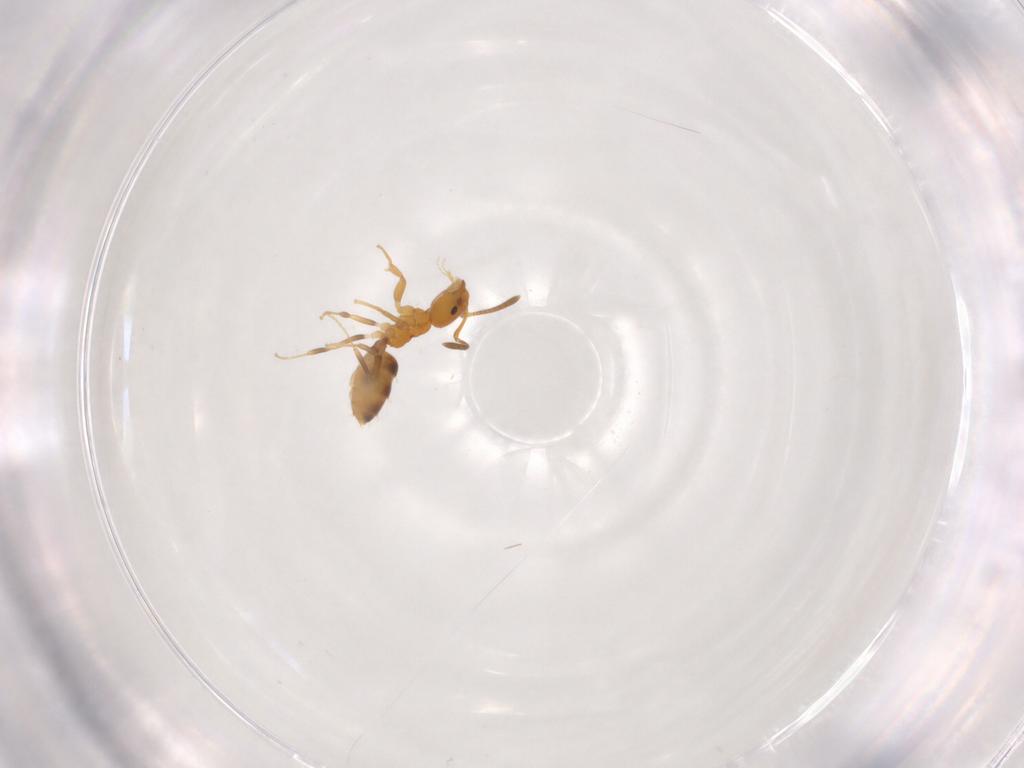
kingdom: Animalia
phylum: Arthropoda
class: Insecta
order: Hymenoptera
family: Formicidae
